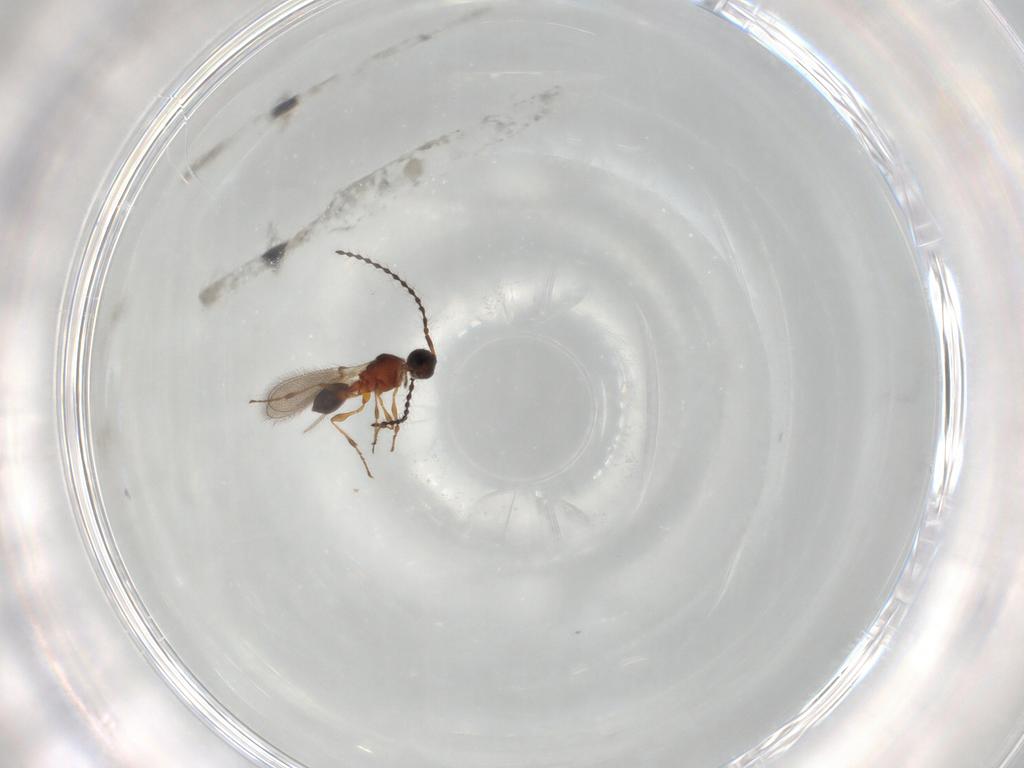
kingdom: Animalia
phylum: Arthropoda
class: Insecta
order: Hymenoptera
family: Diapriidae
